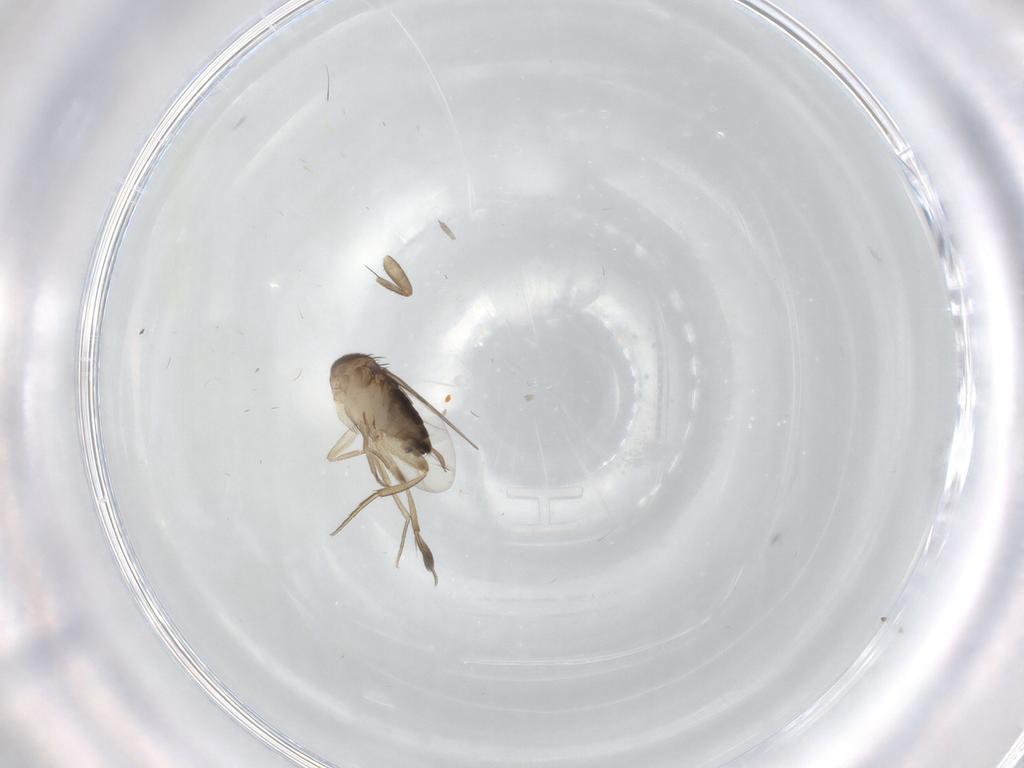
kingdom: Animalia
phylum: Arthropoda
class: Insecta
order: Diptera
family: Phoridae
